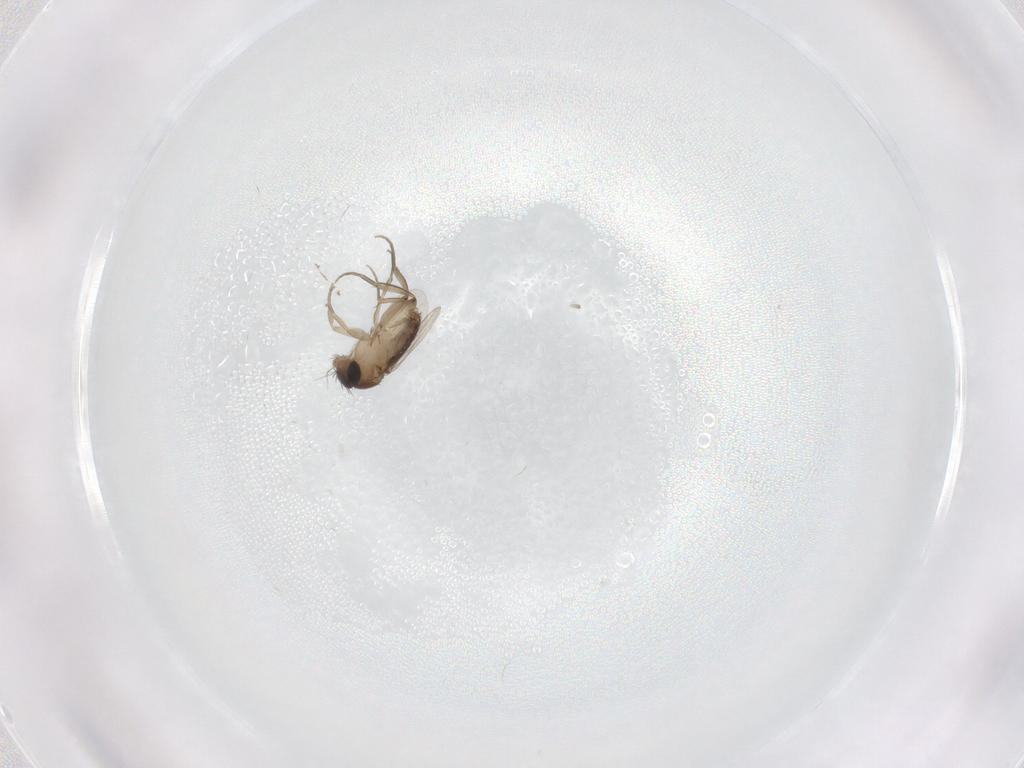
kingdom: Animalia
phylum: Arthropoda
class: Insecta
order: Diptera
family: Phoridae
